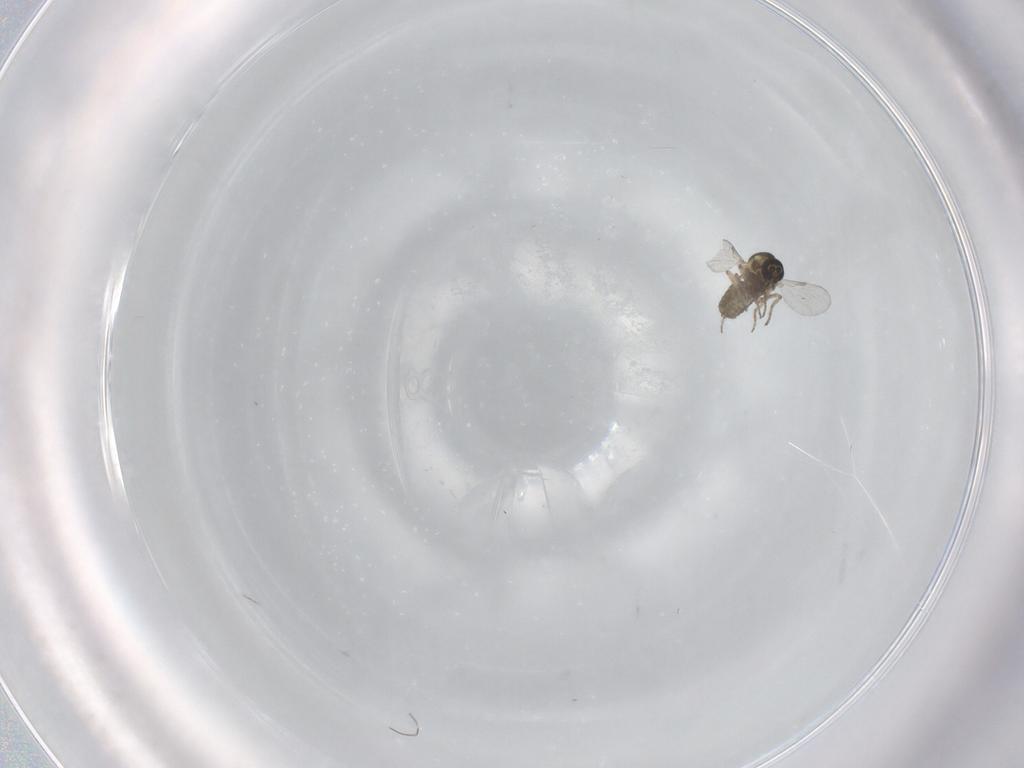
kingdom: Animalia
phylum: Arthropoda
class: Insecta
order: Diptera
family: Ceratopogonidae
